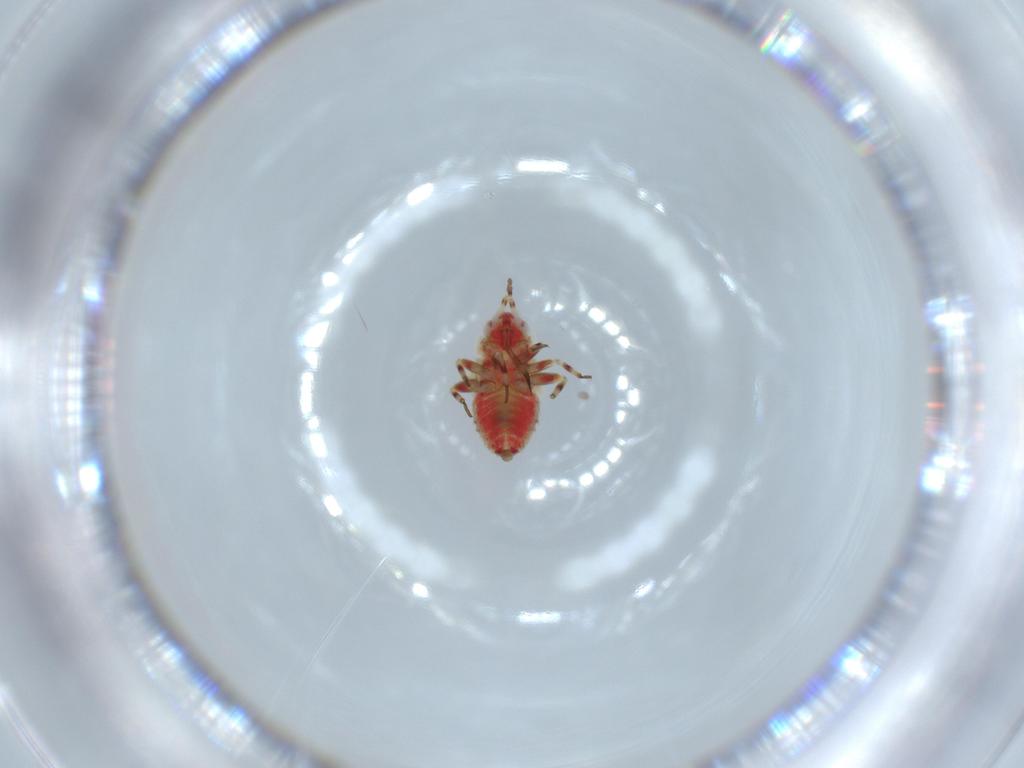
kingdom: Animalia
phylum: Arthropoda
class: Insecta
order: Hemiptera
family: Miridae
